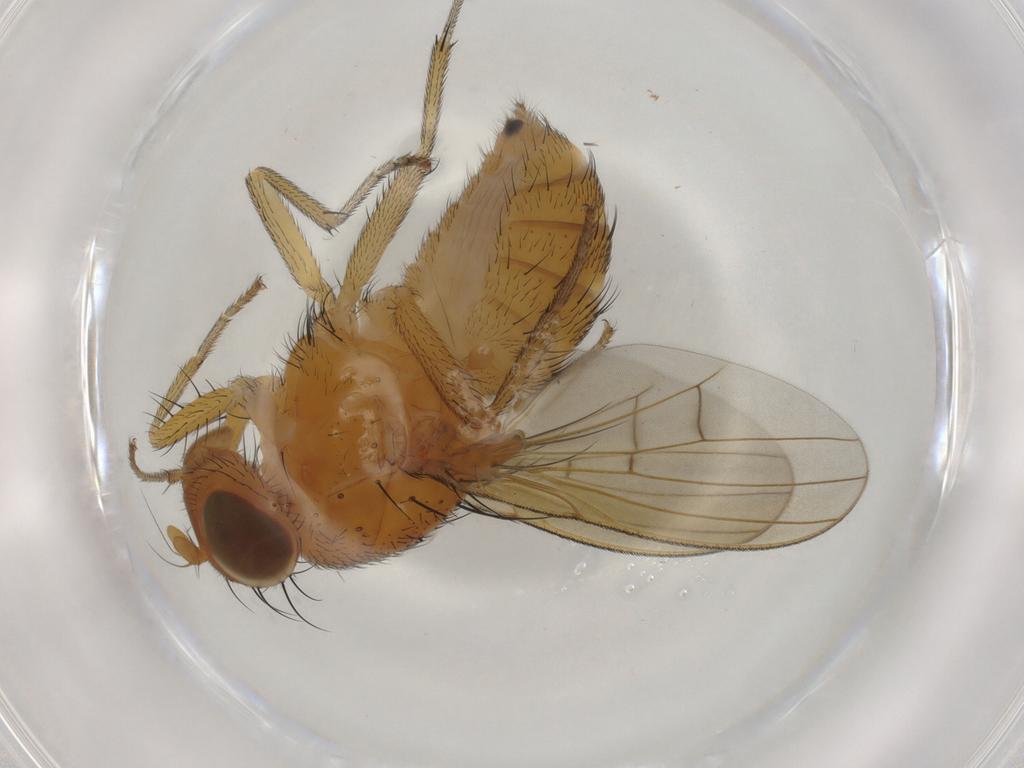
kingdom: Animalia
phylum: Arthropoda
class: Insecta
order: Diptera
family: Lauxaniidae
